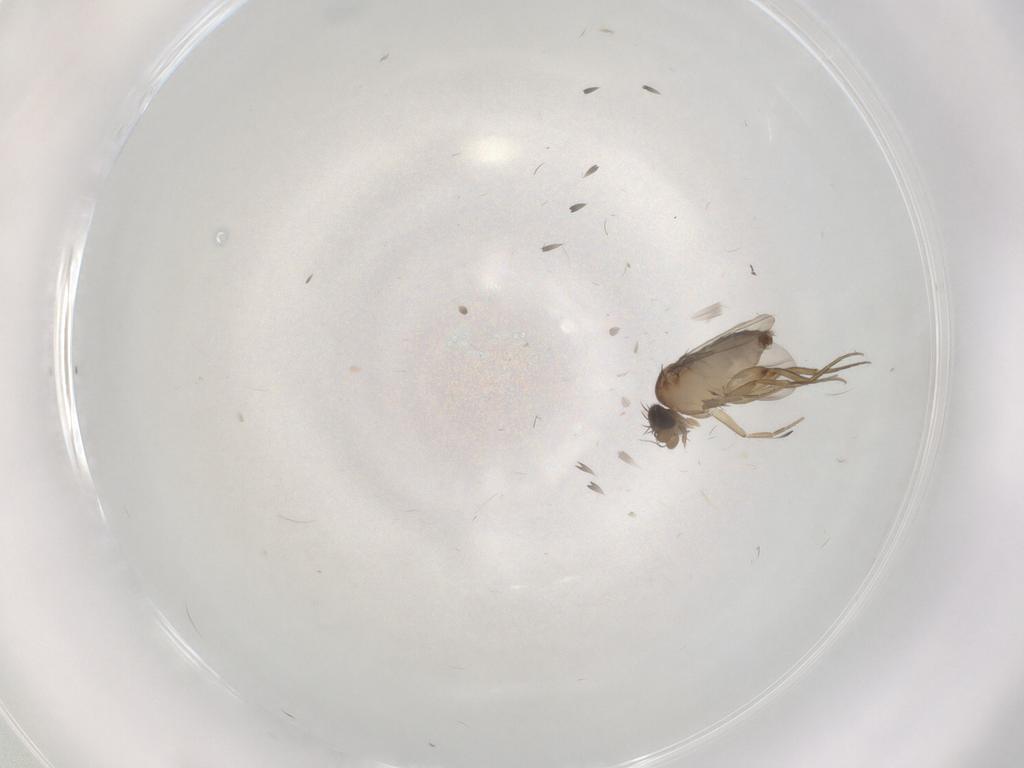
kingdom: Animalia
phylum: Arthropoda
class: Insecta
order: Diptera
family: Phoridae
